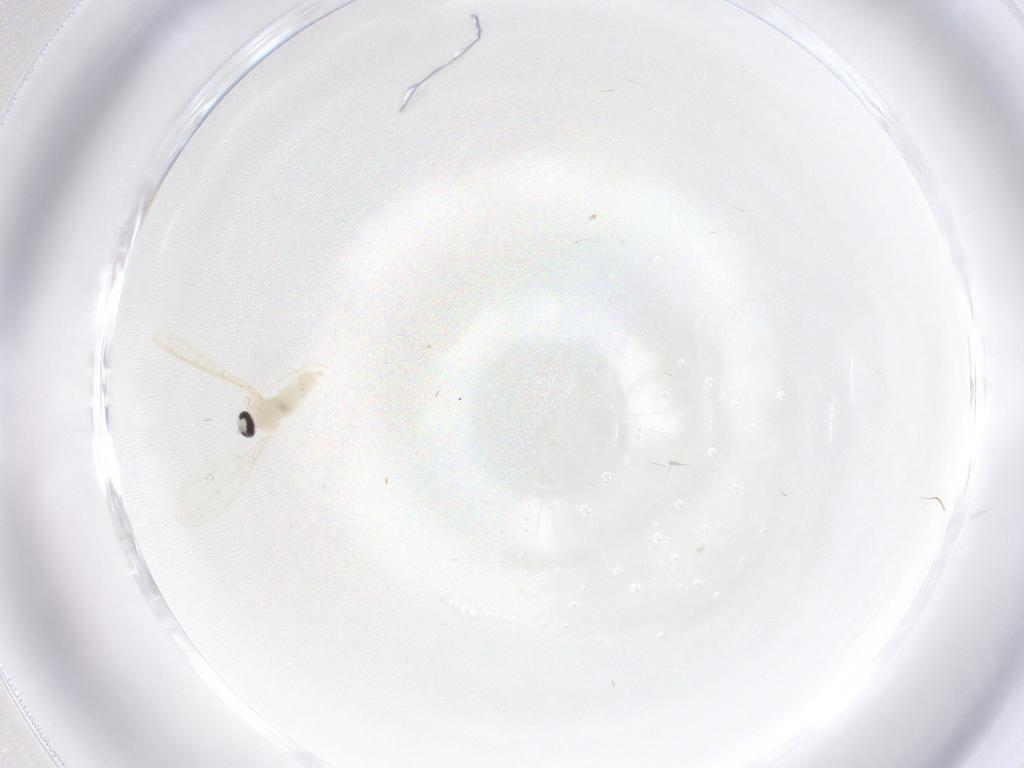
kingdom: Animalia
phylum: Arthropoda
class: Insecta
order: Diptera
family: Cecidomyiidae
